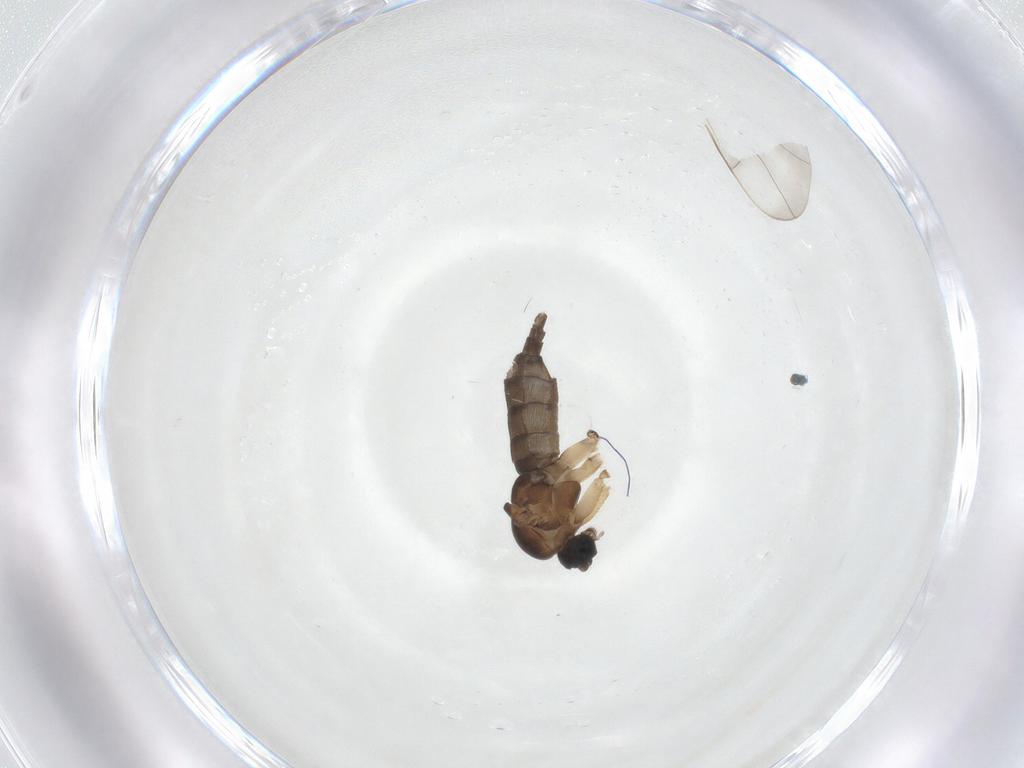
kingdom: Animalia
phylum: Arthropoda
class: Insecta
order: Diptera
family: Sciaridae
